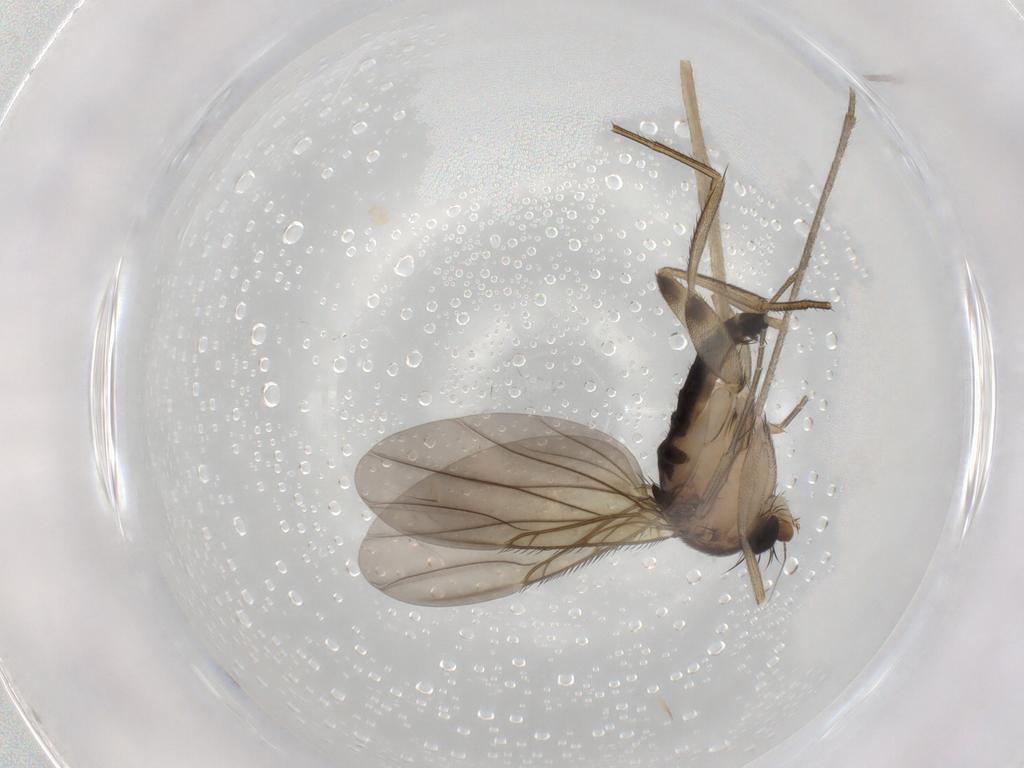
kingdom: Animalia
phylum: Arthropoda
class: Insecta
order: Diptera
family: Phoridae
